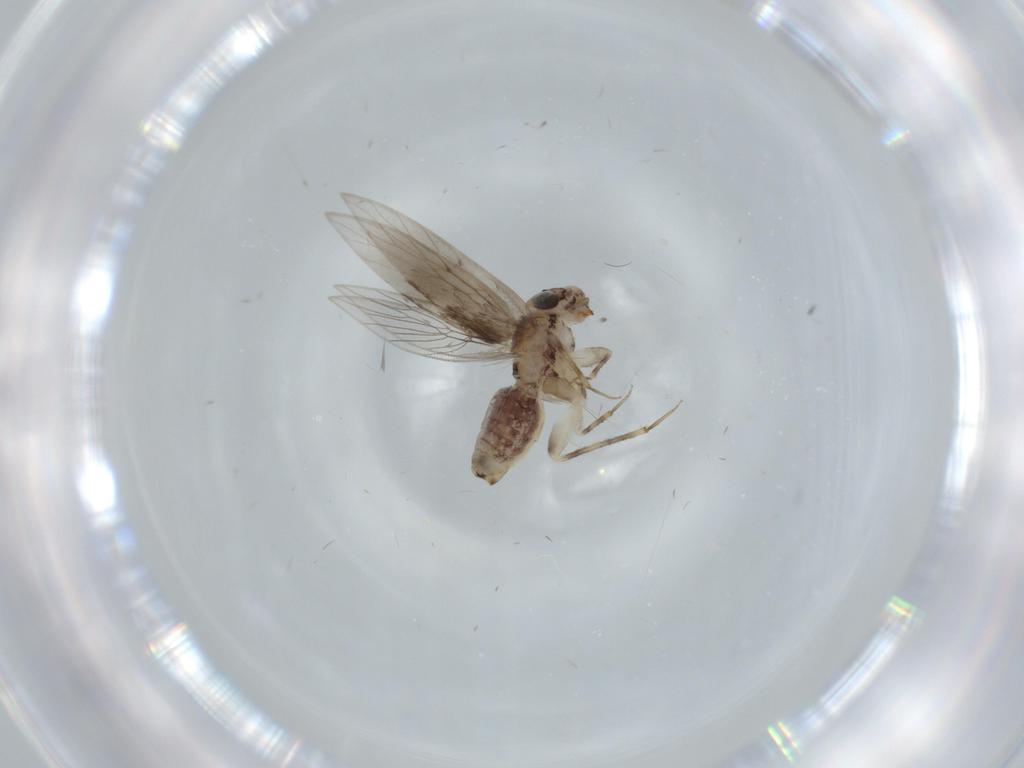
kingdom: Animalia
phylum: Arthropoda
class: Insecta
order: Psocodea
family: Lepidopsocidae
